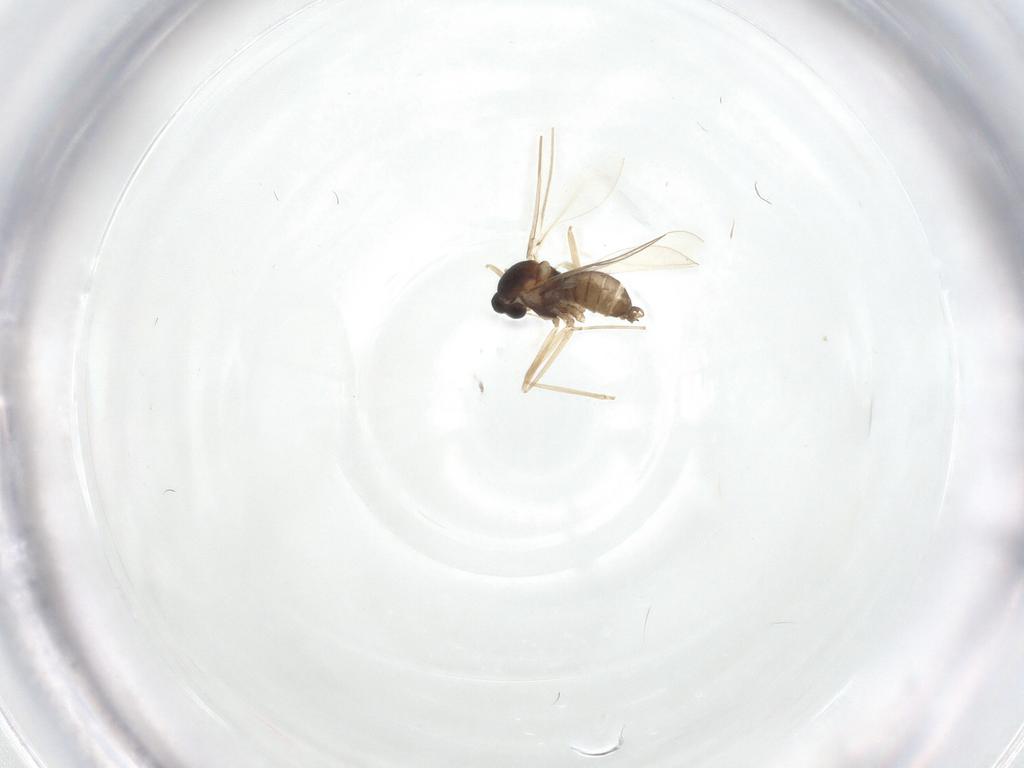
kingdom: Animalia
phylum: Arthropoda
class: Insecta
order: Diptera
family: Cecidomyiidae
